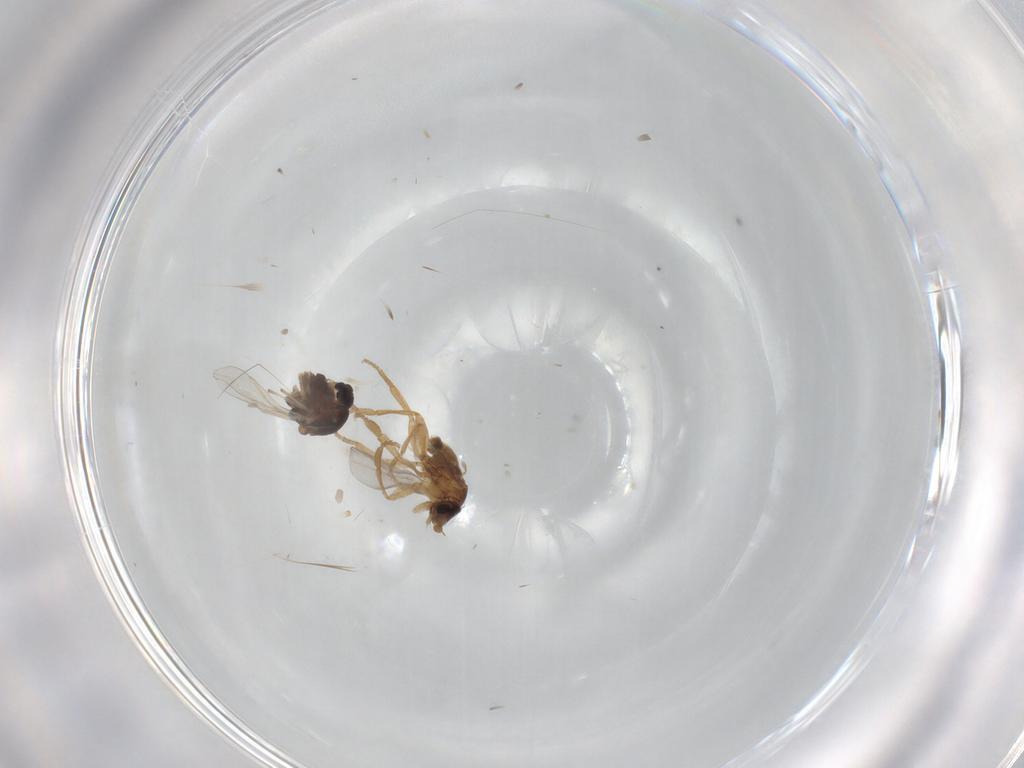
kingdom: Animalia
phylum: Arthropoda
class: Insecta
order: Diptera
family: Chironomidae
